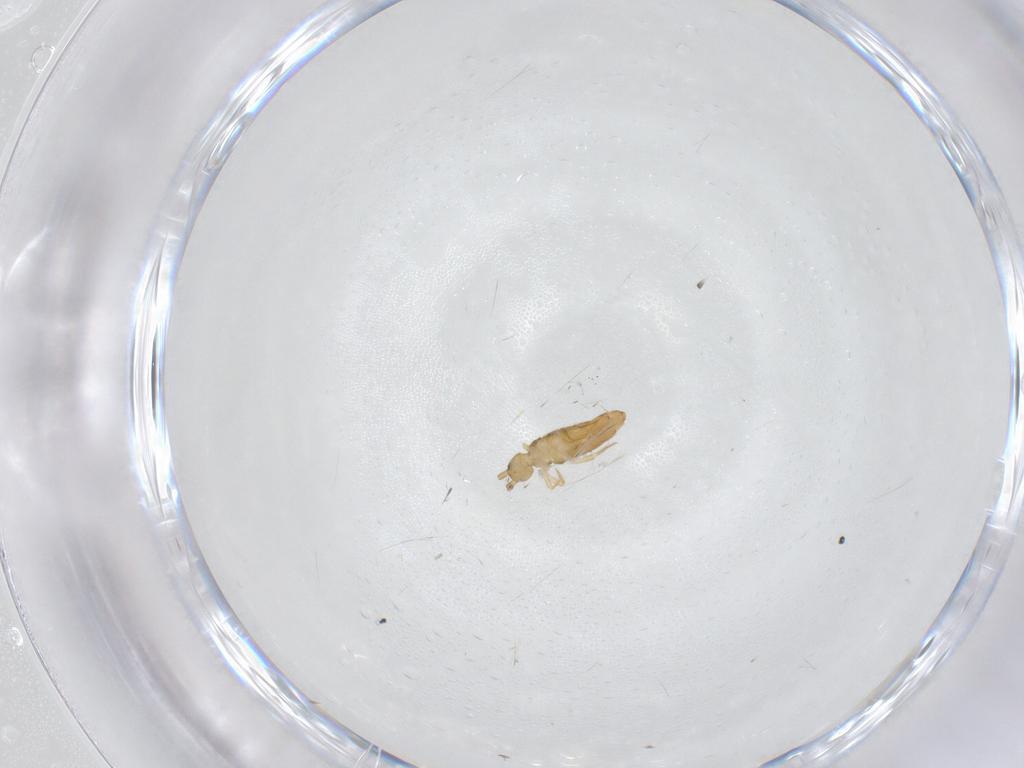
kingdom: Animalia
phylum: Arthropoda
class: Collembola
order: Entomobryomorpha
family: Entomobryidae
